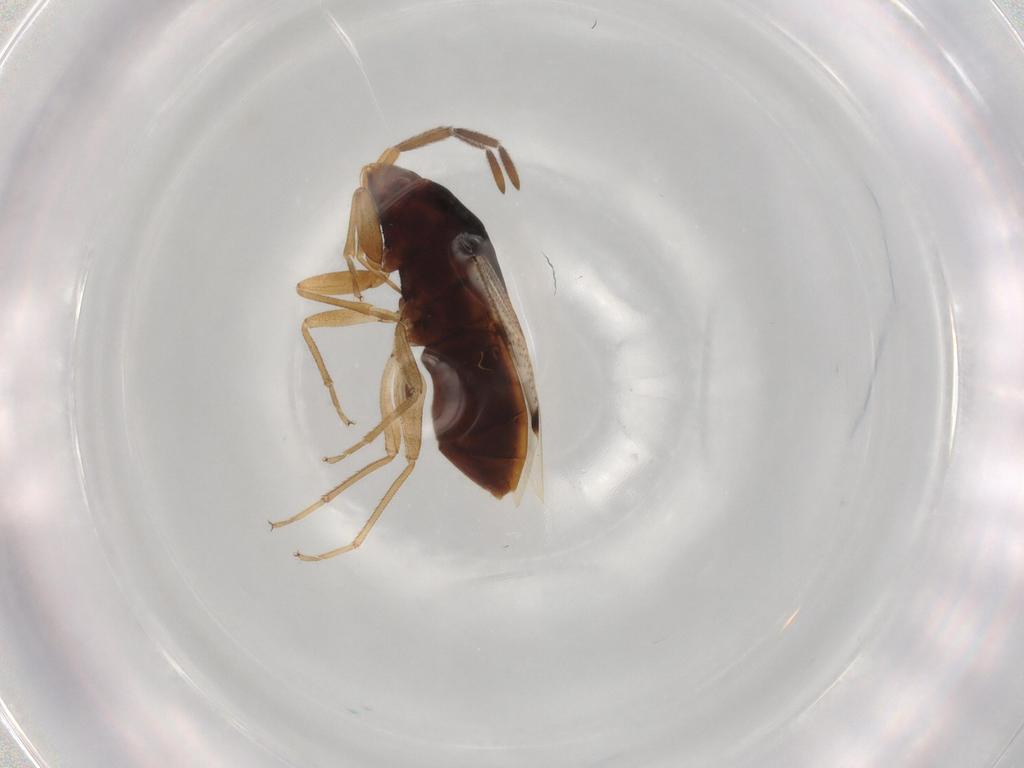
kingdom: Animalia
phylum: Arthropoda
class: Insecta
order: Hemiptera
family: Rhyparochromidae
